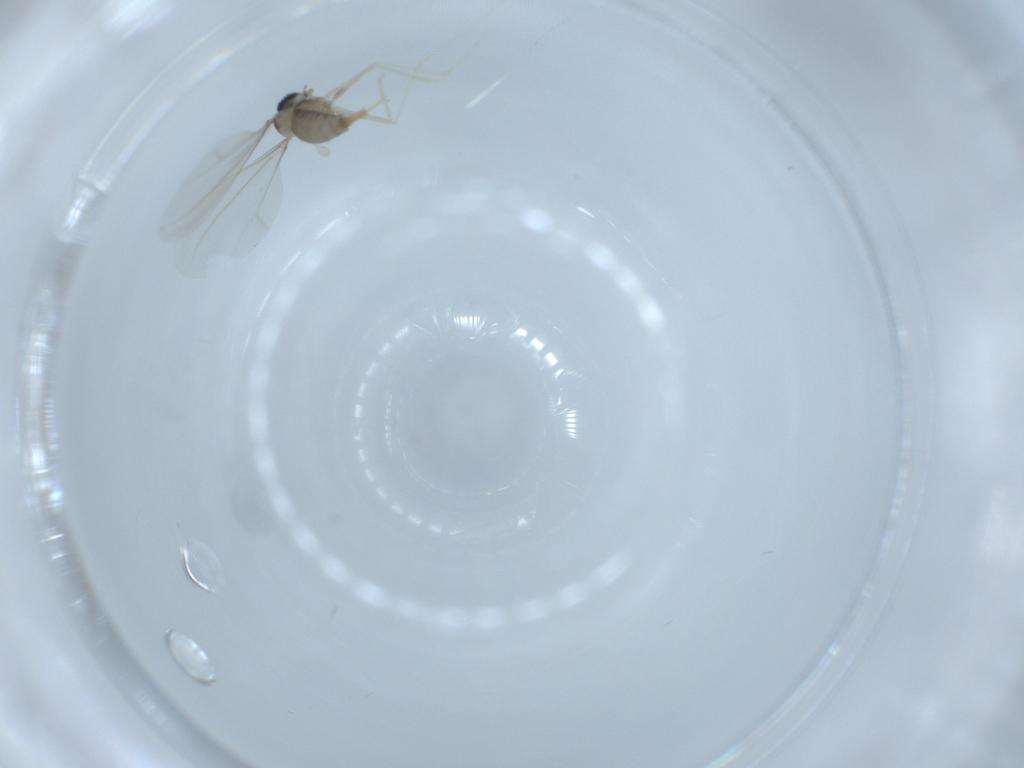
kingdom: Animalia
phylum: Arthropoda
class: Insecta
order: Diptera
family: Cecidomyiidae
